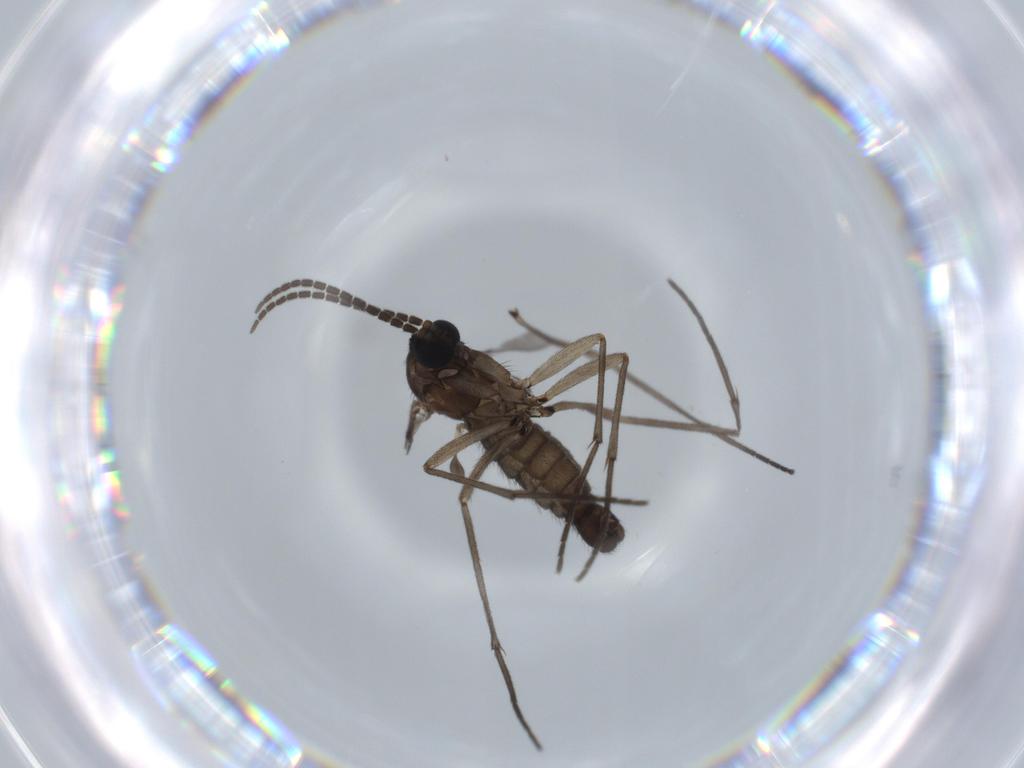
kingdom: Animalia
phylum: Arthropoda
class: Insecta
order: Diptera
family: Sciaridae
